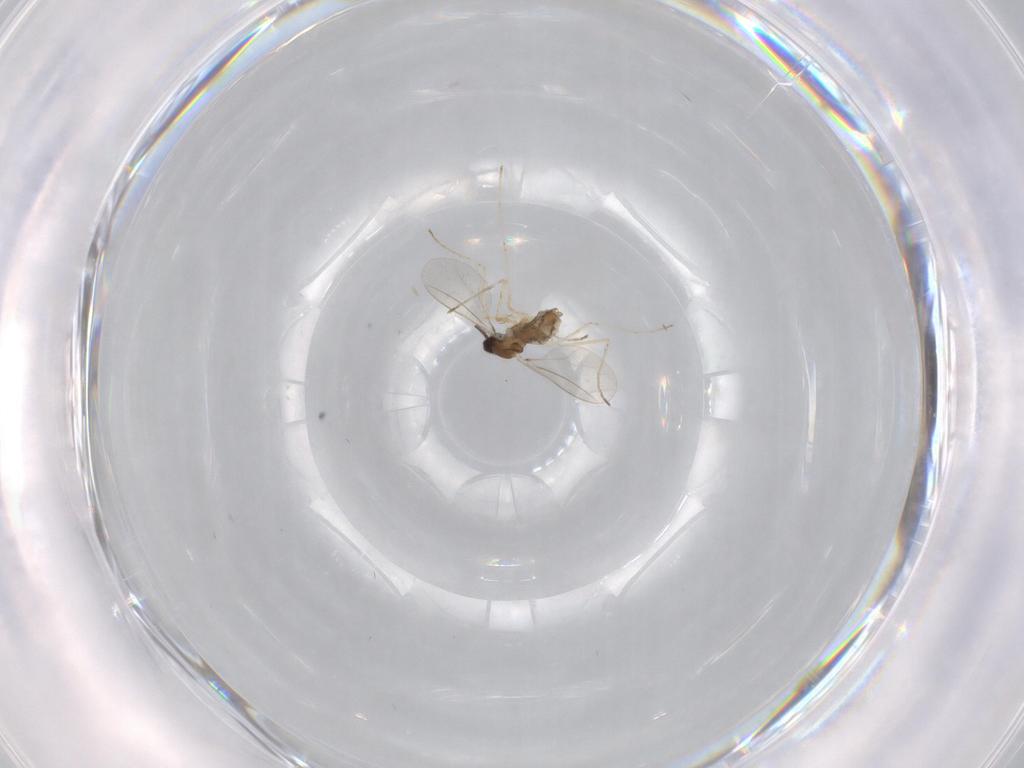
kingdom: Animalia
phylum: Arthropoda
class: Insecta
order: Diptera
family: Cecidomyiidae
